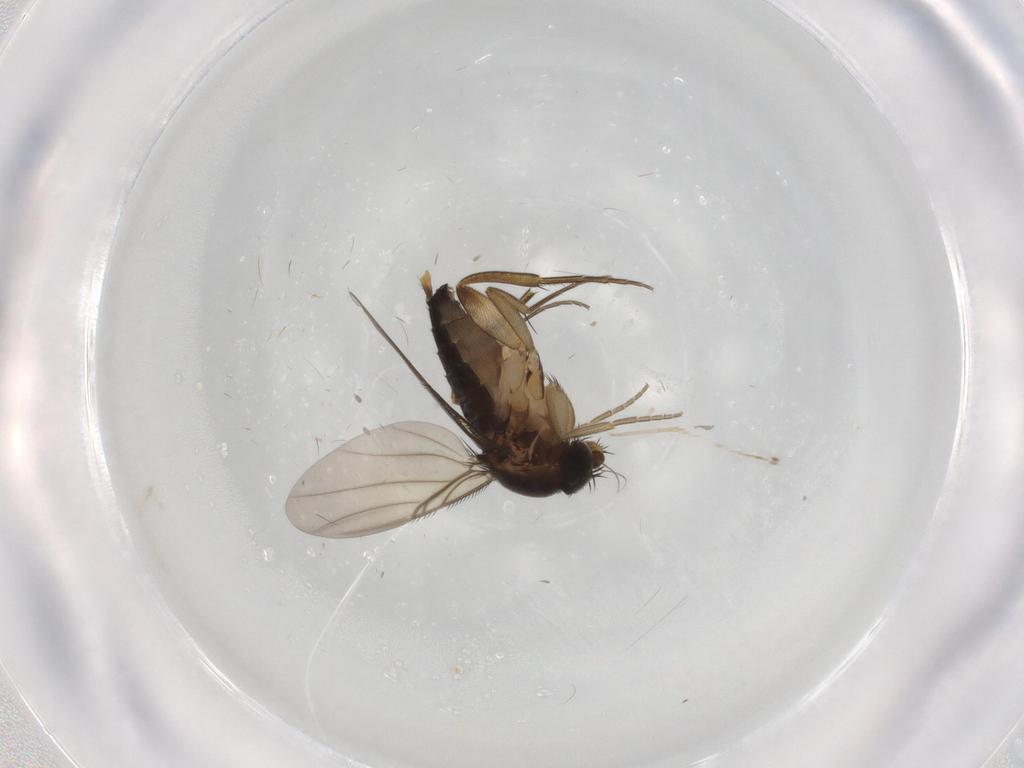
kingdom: Animalia
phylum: Arthropoda
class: Insecta
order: Diptera
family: Phoridae
